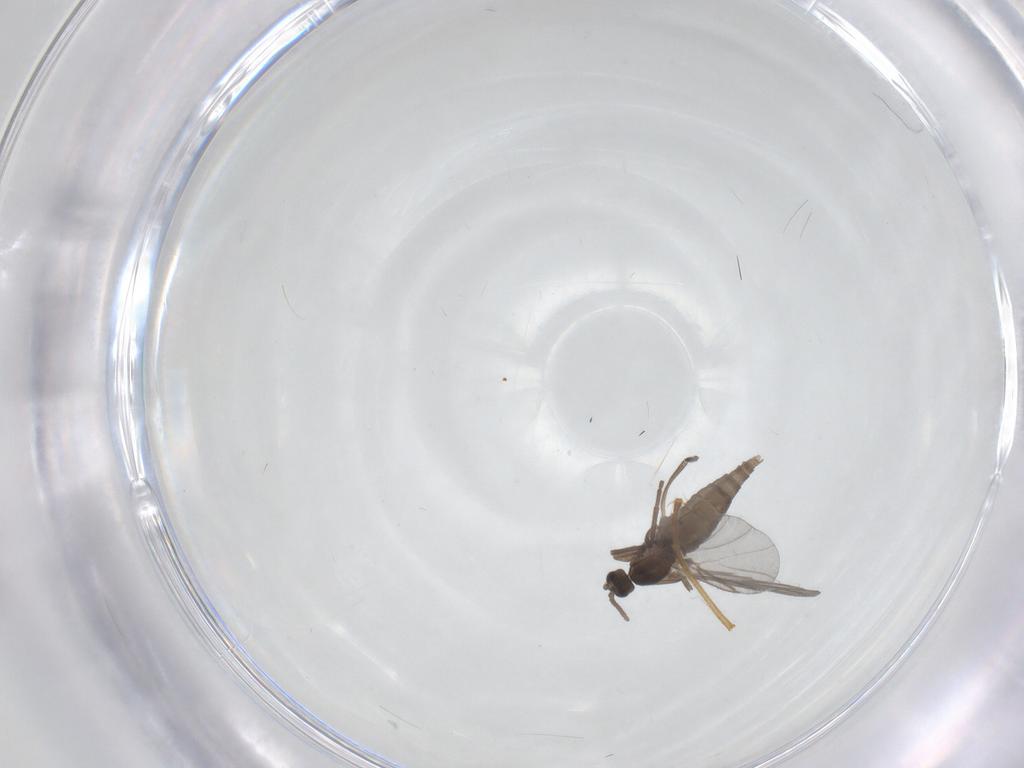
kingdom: Animalia
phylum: Arthropoda
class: Insecta
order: Diptera
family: Cecidomyiidae
